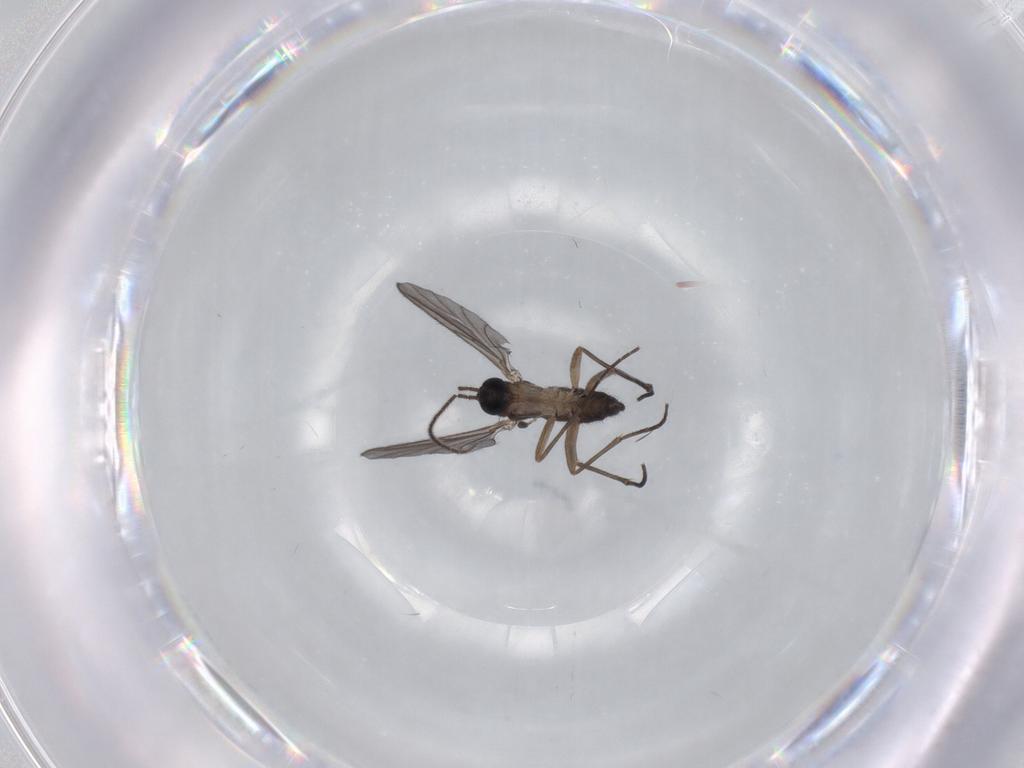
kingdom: Animalia
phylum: Arthropoda
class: Insecta
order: Diptera
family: Sciaridae
